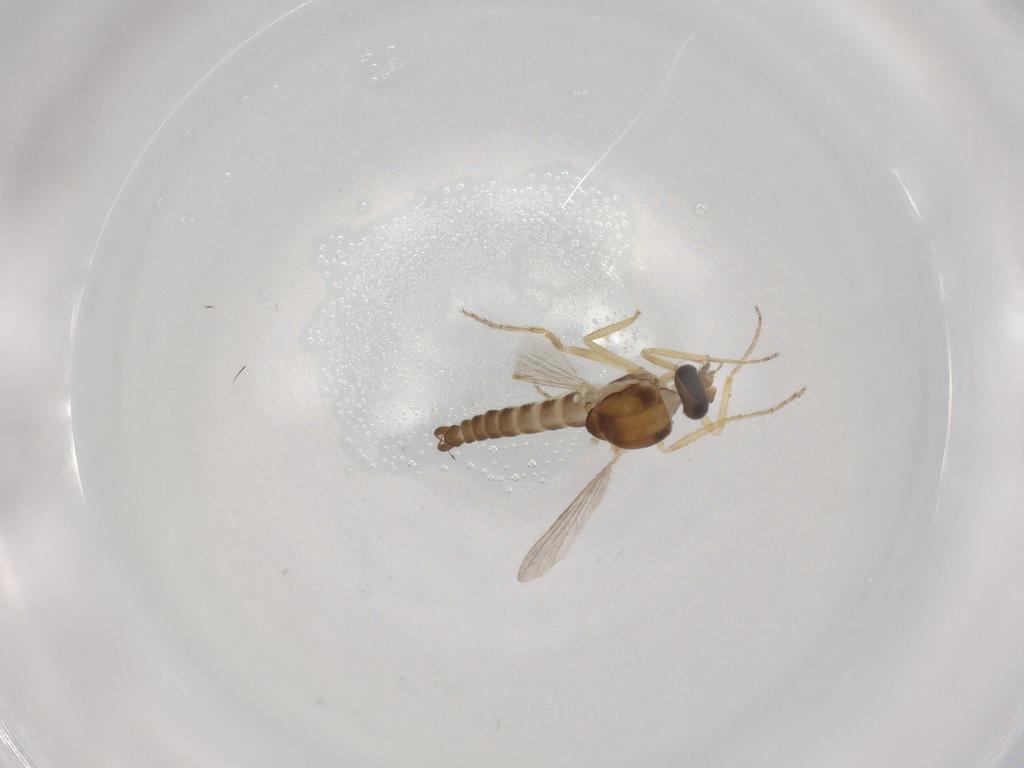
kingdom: Animalia
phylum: Arthropoda
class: Insecta
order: Diptera
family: Ceratopogonidae
